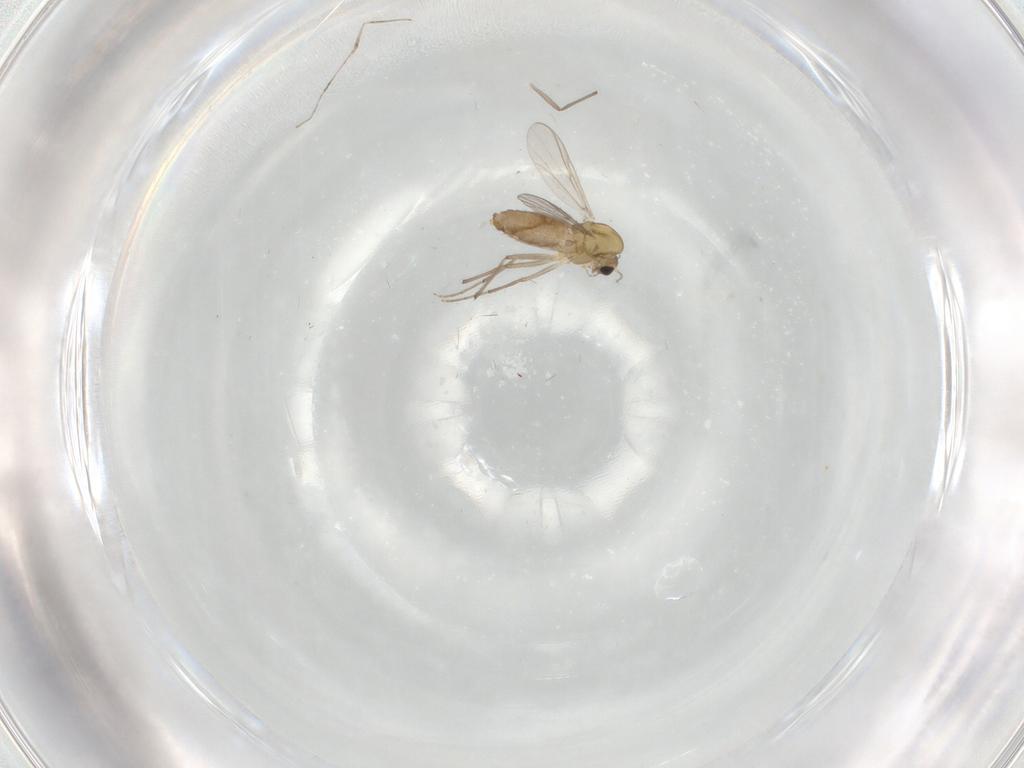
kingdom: Animalia
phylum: Arthropoda
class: Insecta
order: Diptera
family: Chironomidae
